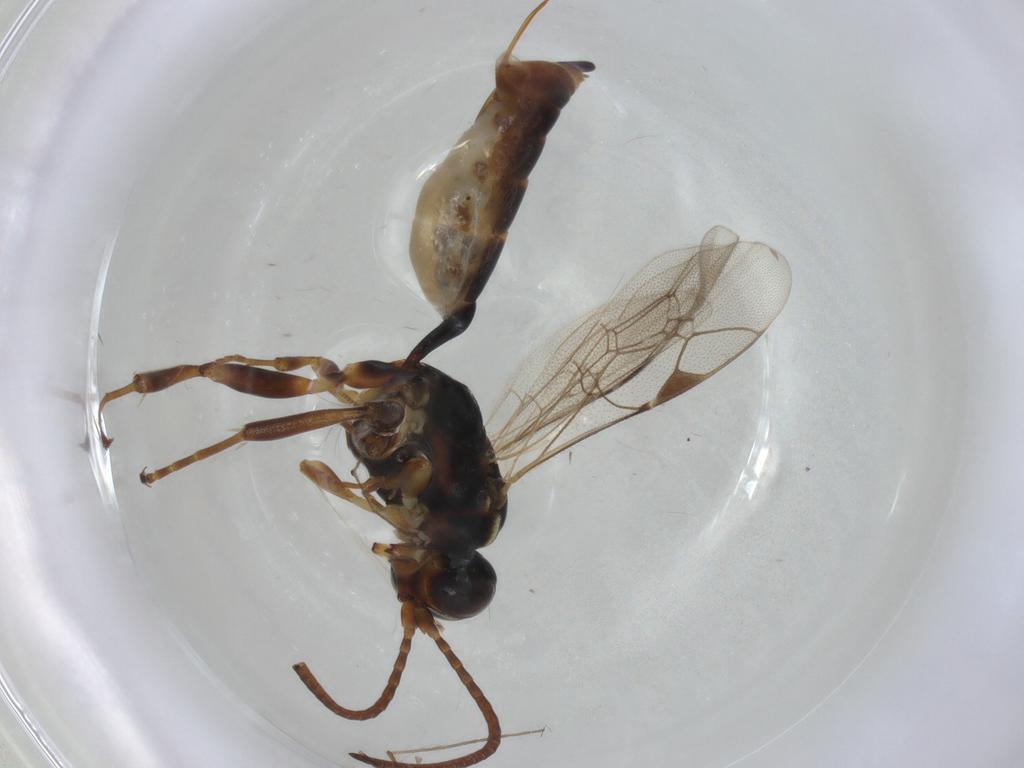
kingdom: Animalia
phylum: Arthropoda
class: Insecta
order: Hymenoptera
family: Ichneumonidae
